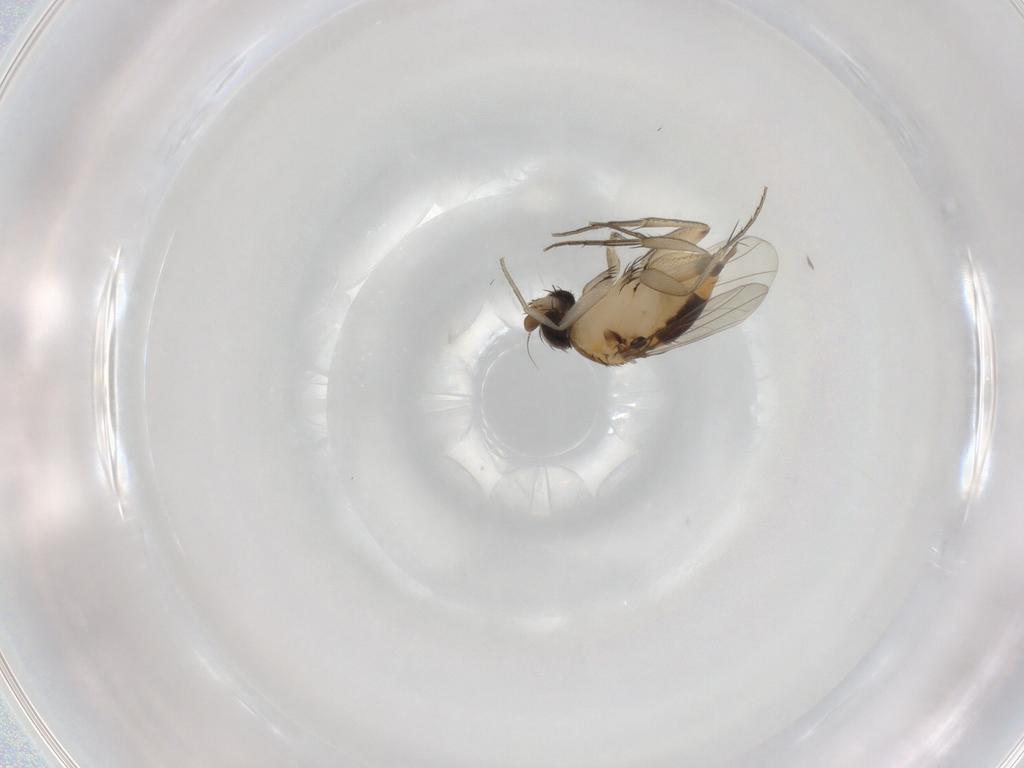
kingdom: Animalia
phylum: Arthropoda
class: Insecta
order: Diptera
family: Phoridae
